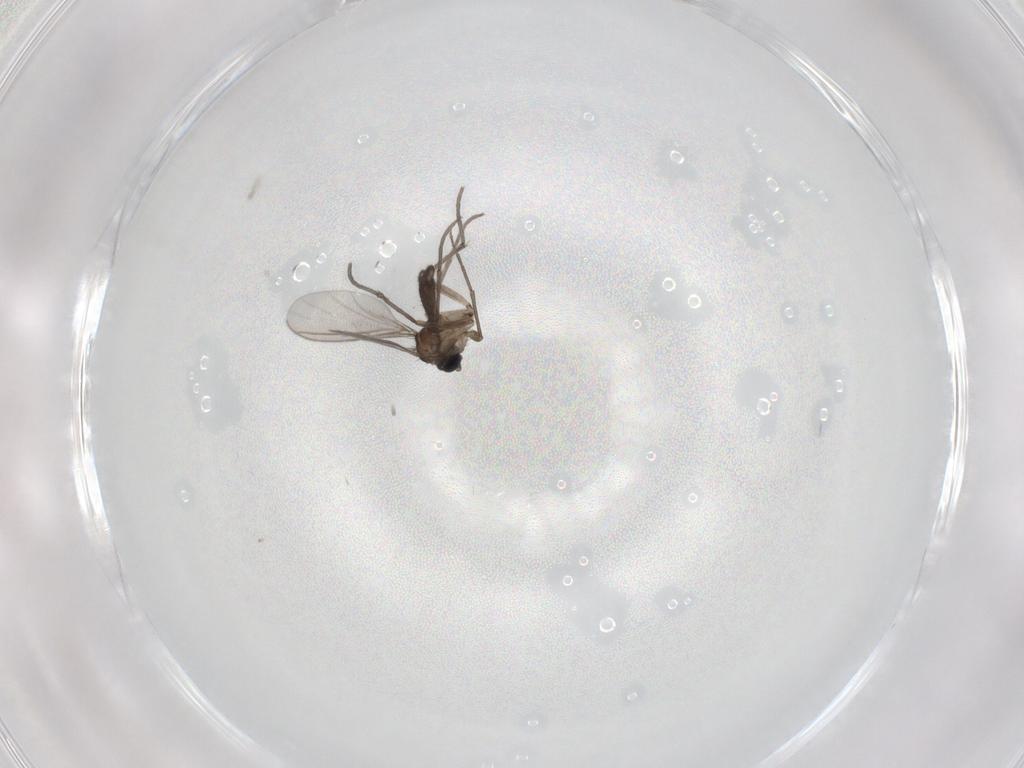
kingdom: Animalia
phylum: Arthropoda
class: Insecta
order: Diptera
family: Sciaridae
